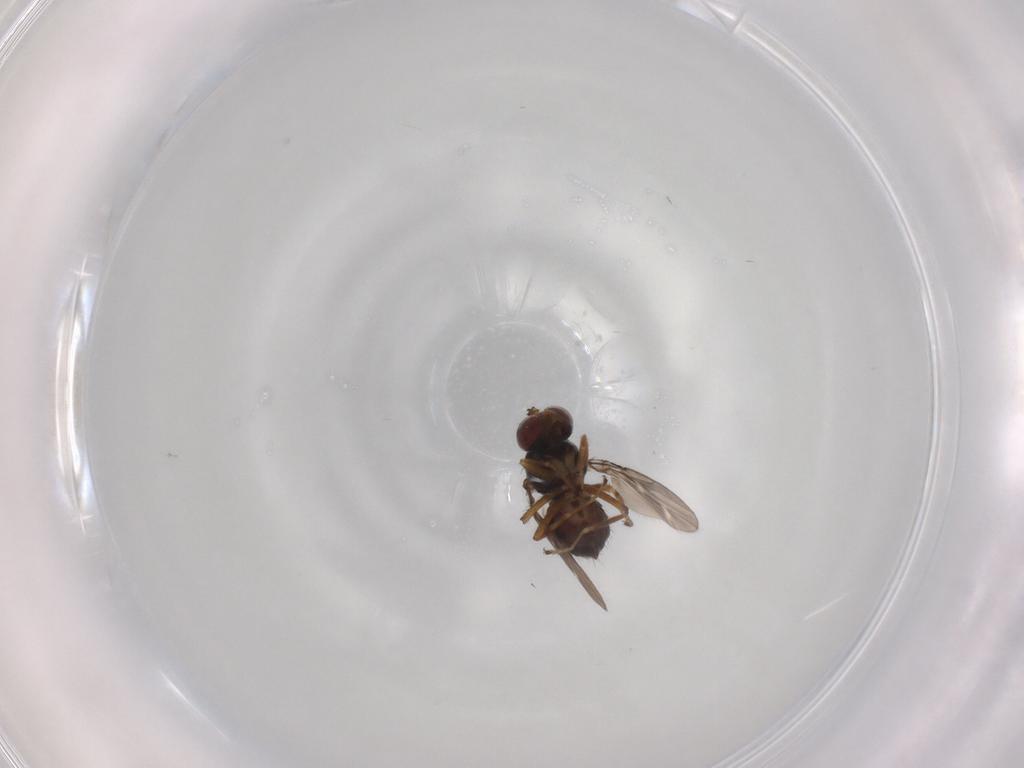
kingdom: Animalia
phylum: Arthropoda
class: Insecta
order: Diptera
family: Ephydridae
